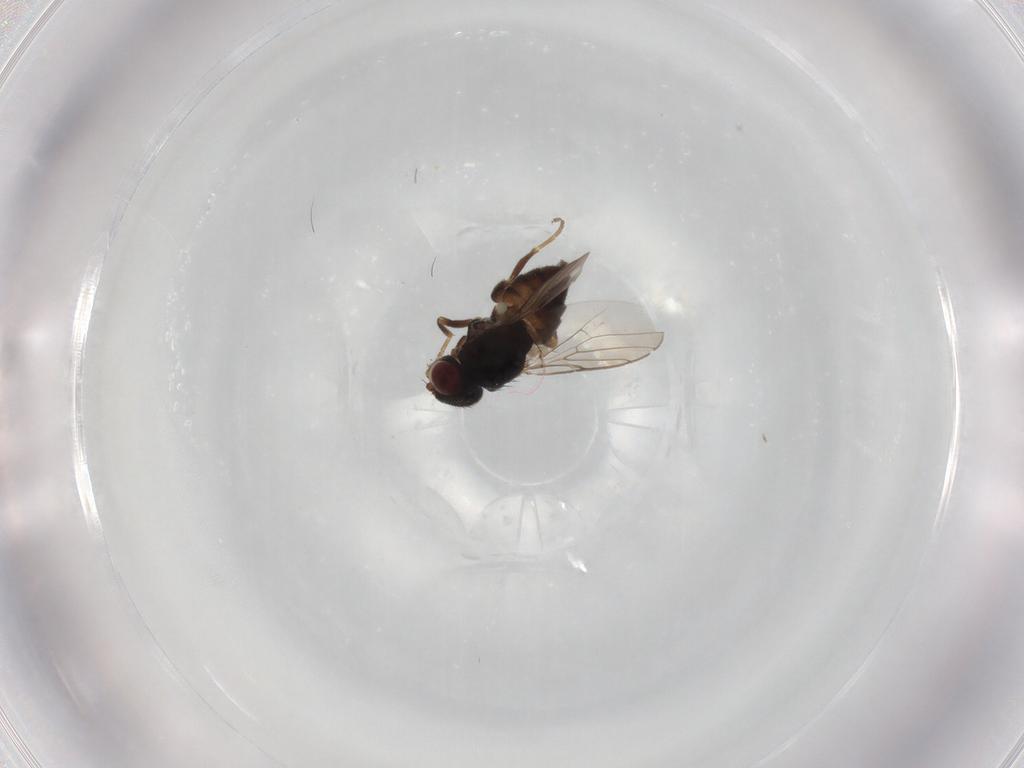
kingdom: Animalia
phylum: Arthropoda
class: Insecta
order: Diptera
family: Chloropidae
